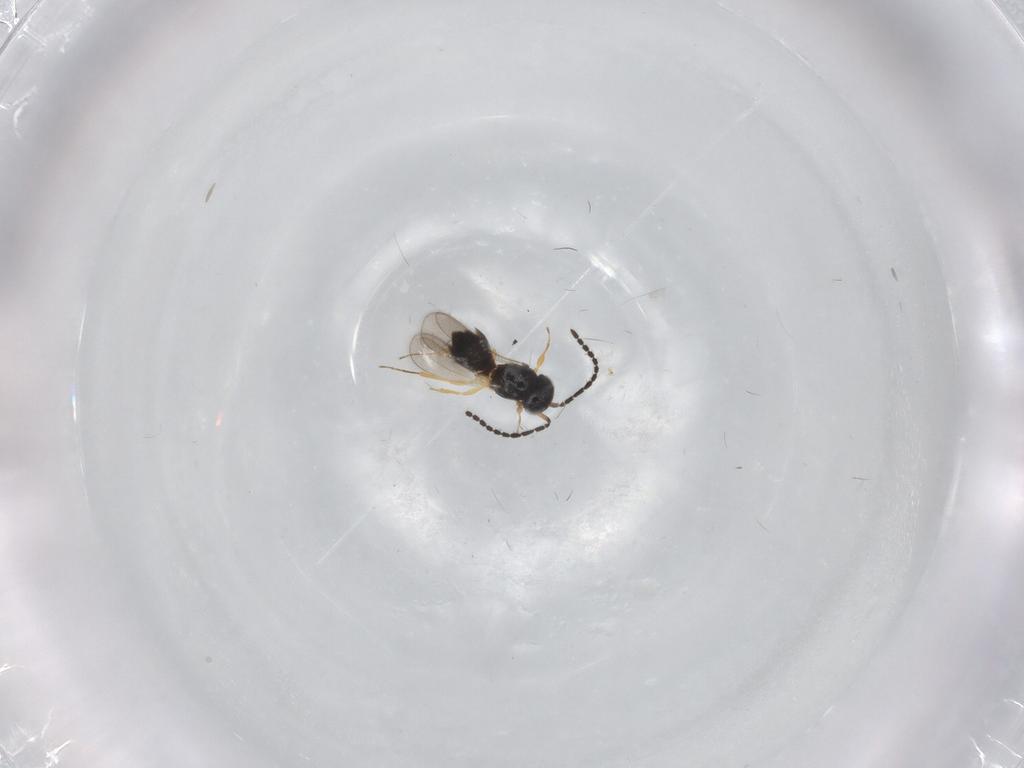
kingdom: Animalia
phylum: Arthropoda
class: Insecta
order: Hymenoptera
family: Scelionidae
